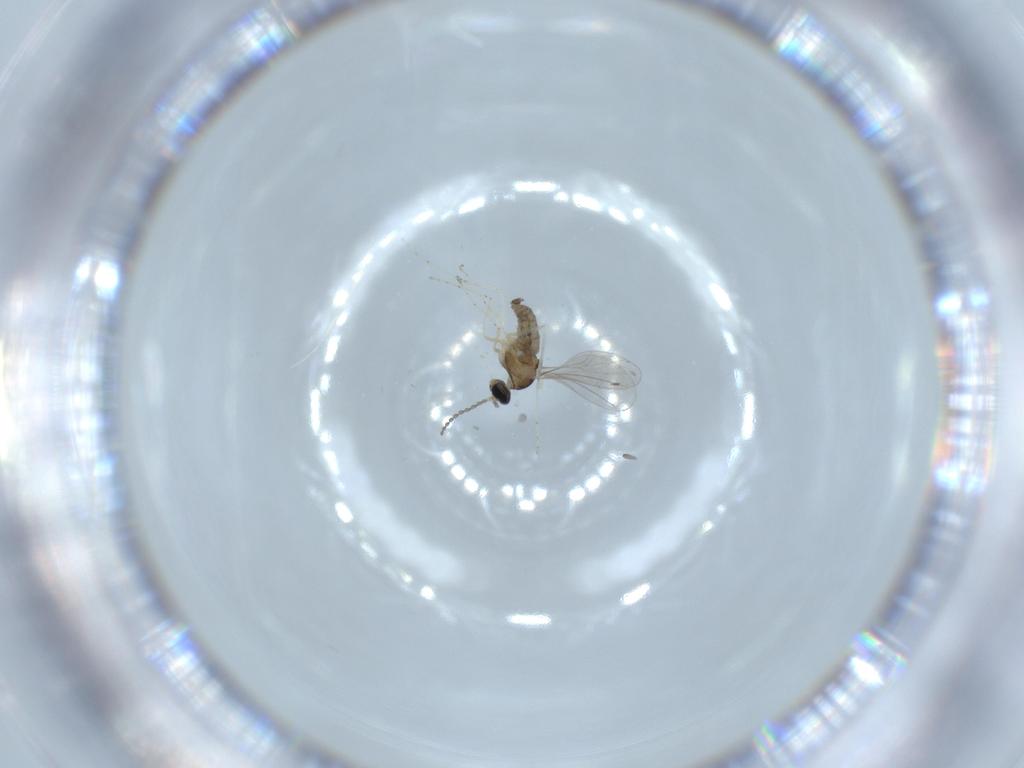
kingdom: Animalia
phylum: Arthropoda
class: Insecta
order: Diptera
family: Cecidomyiidae
